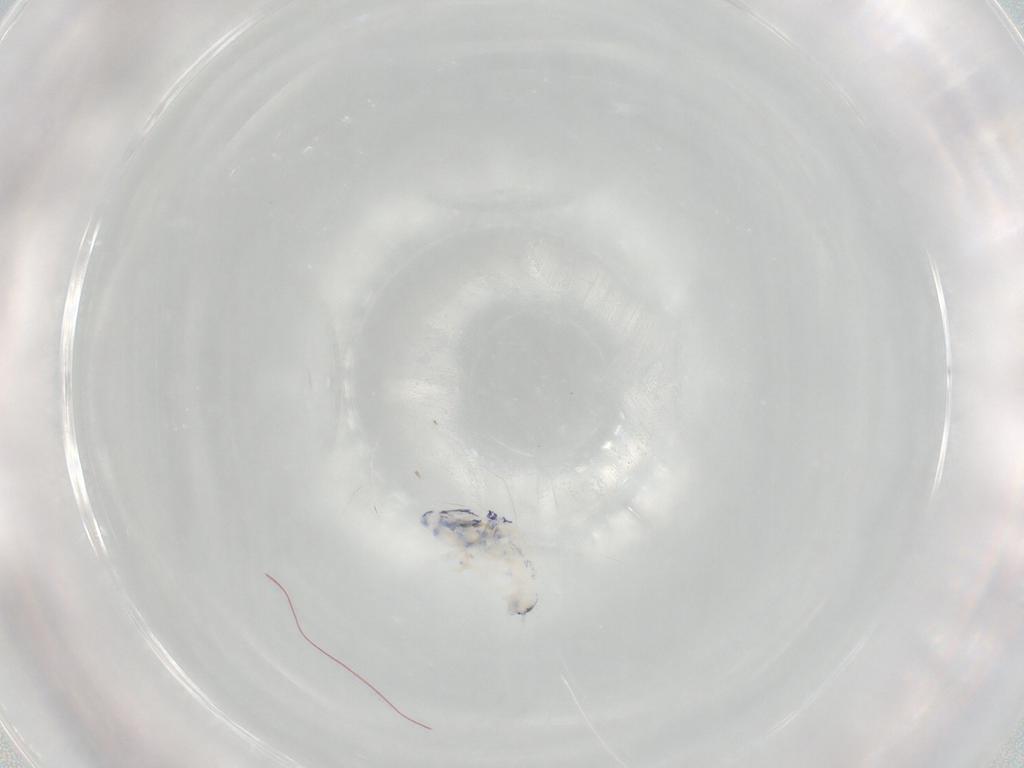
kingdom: Animalia
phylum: Arthropoda
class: Collembola
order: Entomobryomorpha
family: Entomobryidae
